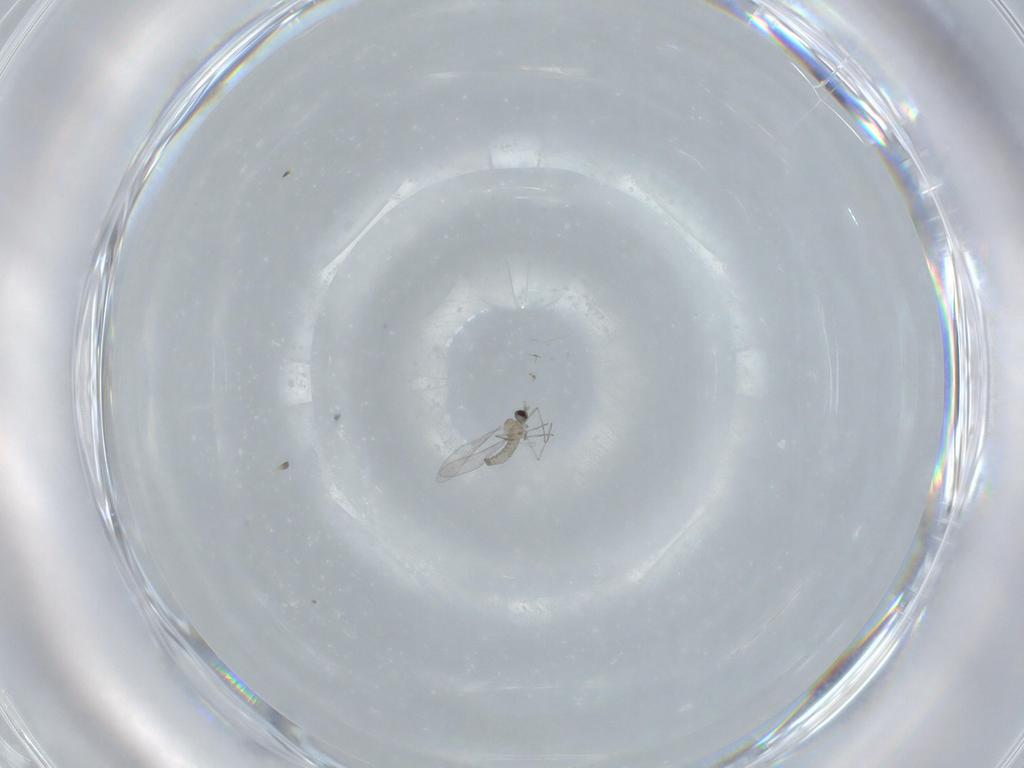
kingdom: Animalia
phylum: Arthropoda
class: Insecta
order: Diptera
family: Cecidomyiidae
